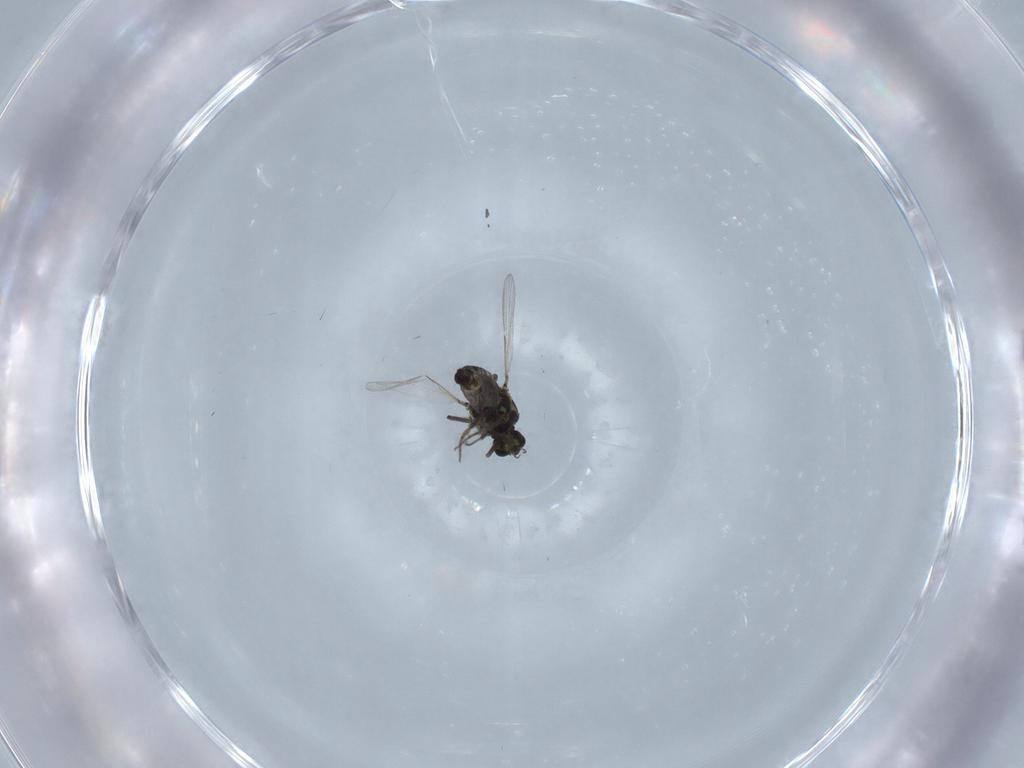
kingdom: Animalia
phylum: Arthropoda
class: Insecta
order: Diptera
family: Ceratopogonidae
